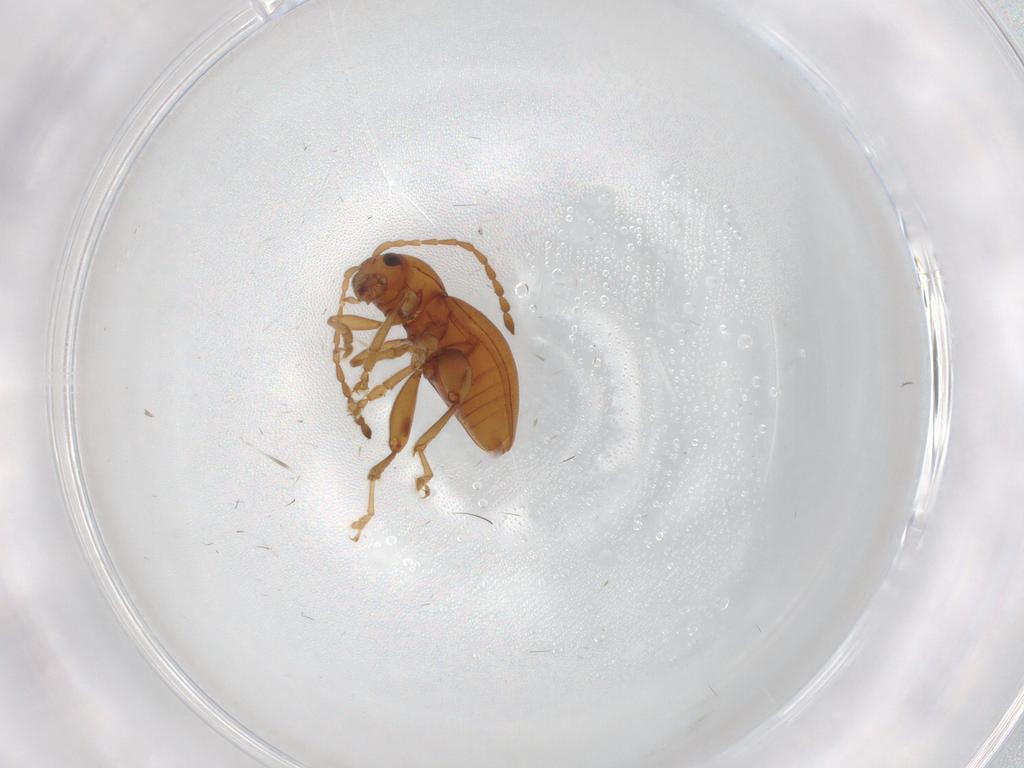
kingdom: Animalia
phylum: Arthropoda
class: Insecta
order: Coleoptera
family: Chrysomelidae
